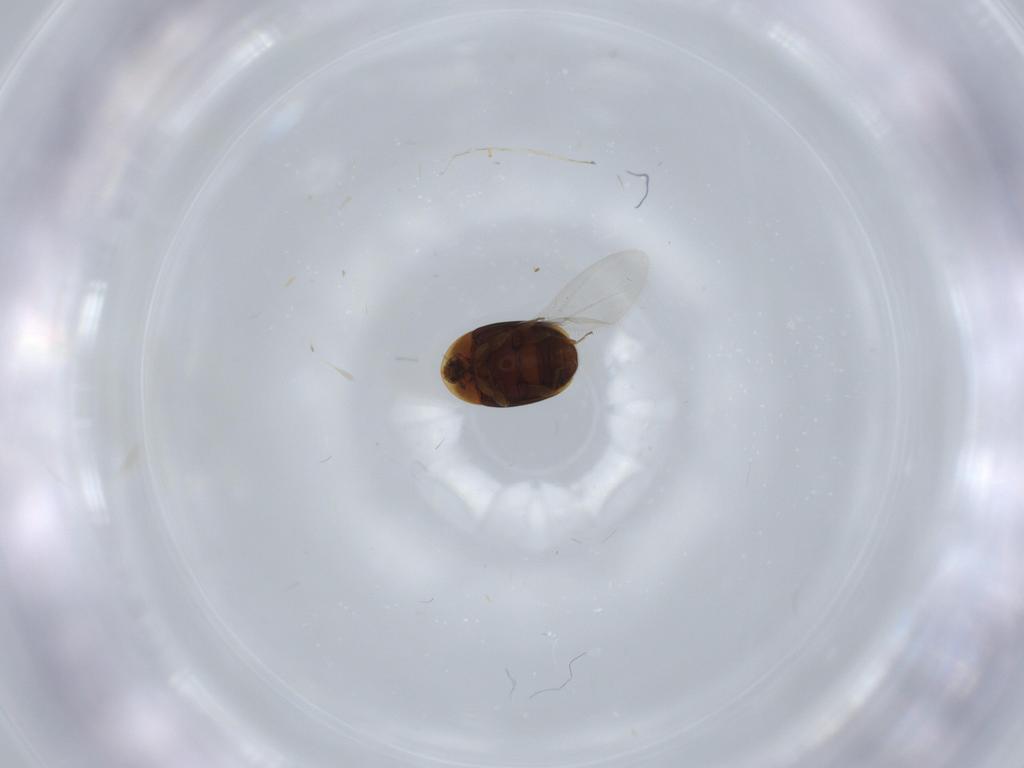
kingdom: Animalia
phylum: Arthropoda
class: Insecta
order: Coleoptera
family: Corylophidae
